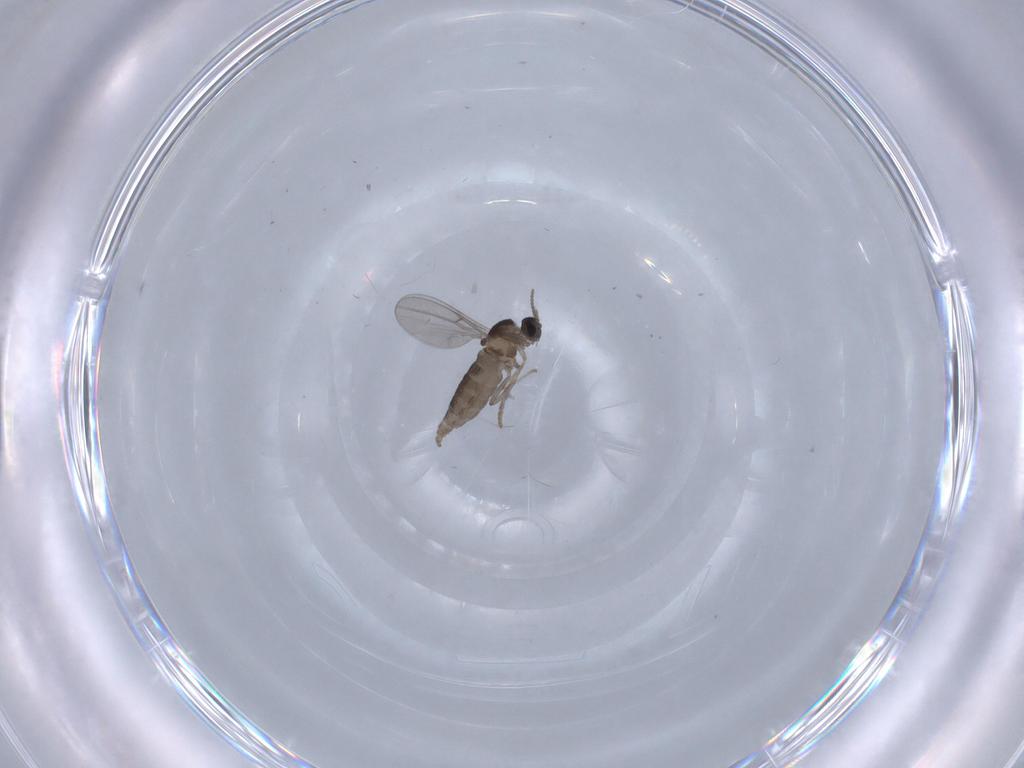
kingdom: Animalia
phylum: Arthropoda
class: Insecta
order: Diptera
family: Cecidomyiidae
